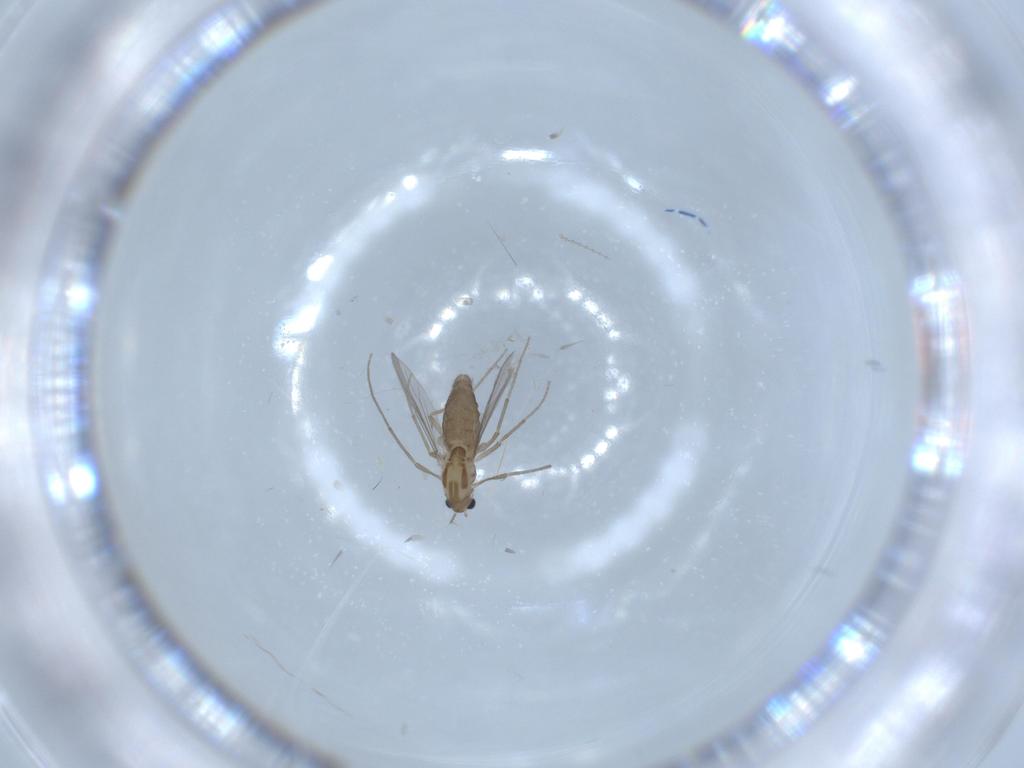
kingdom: Animalia
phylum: Arthropoda
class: Insecta
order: Diptera
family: Chironomidae
